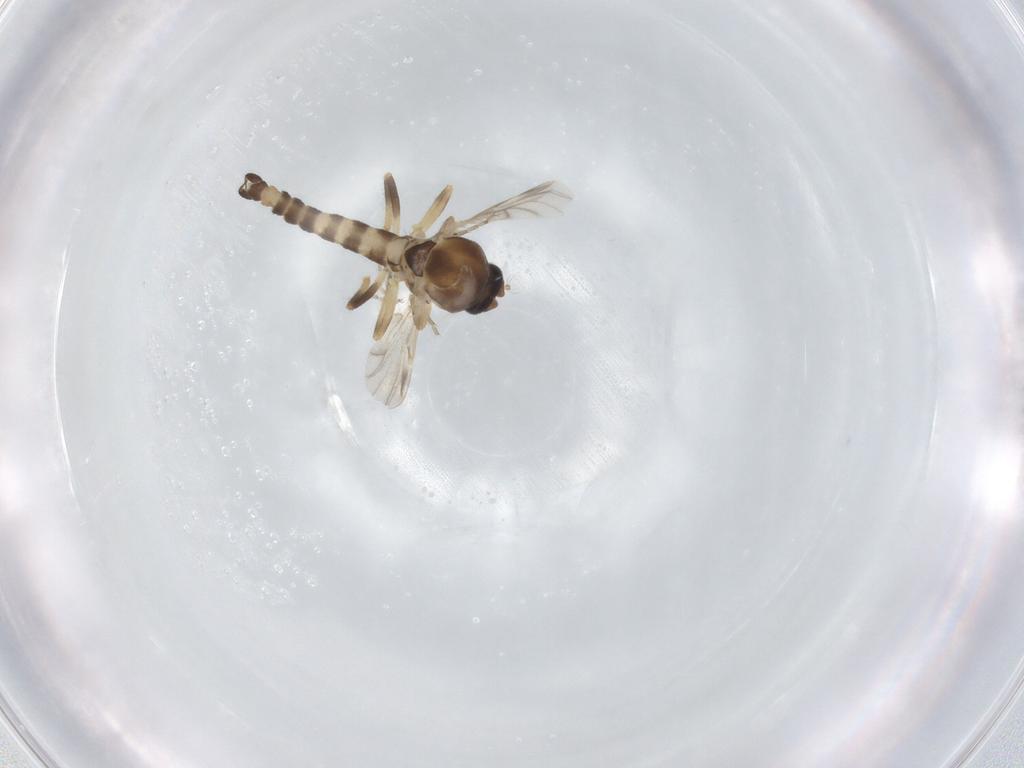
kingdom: Animalia
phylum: Arthropoda
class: Insecta
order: Diptera
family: Ceratopogonidae
